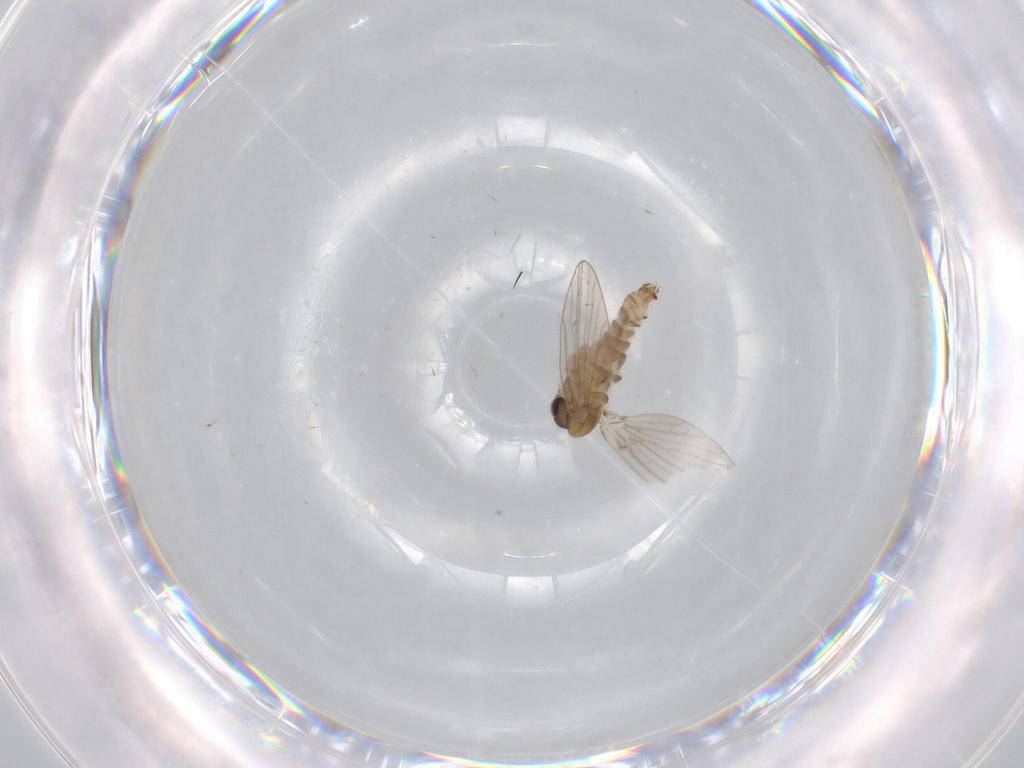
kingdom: Animalia
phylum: Arthropoda
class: Insecta
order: Diptera
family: Psychodidae
